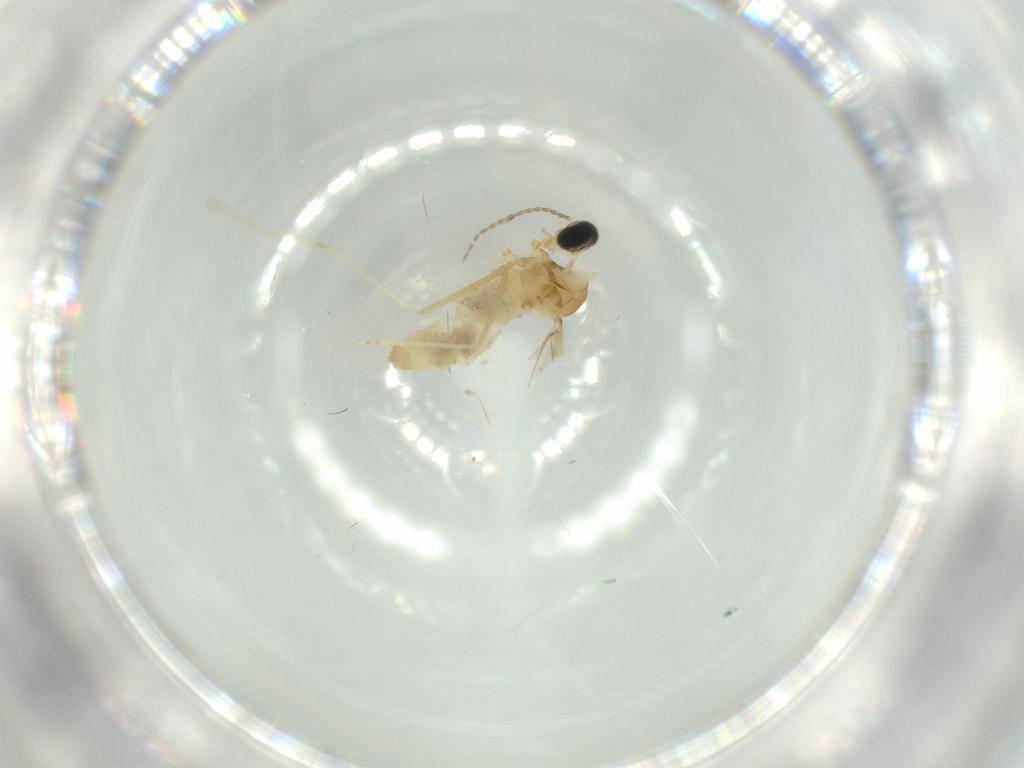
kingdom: Animalia
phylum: Arthropoda
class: Insecta
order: Diptera
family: Cecidomyiidae
